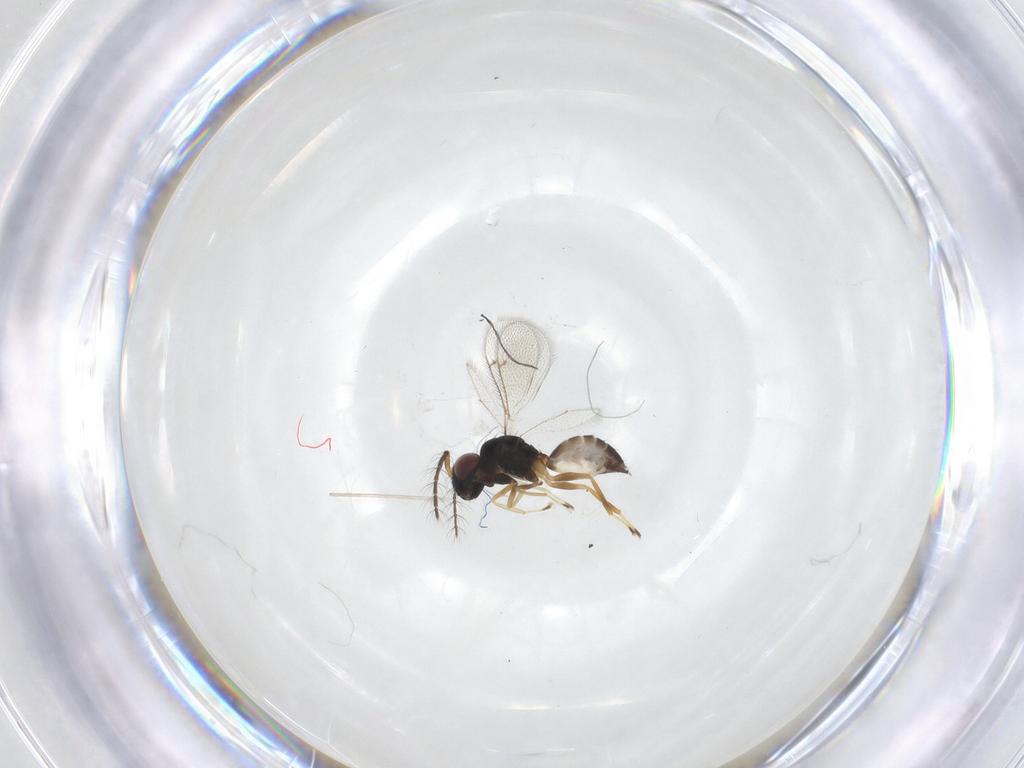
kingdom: Animalia
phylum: Arthropoda
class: Insecta
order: Hymenoptera
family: Eulophidae
